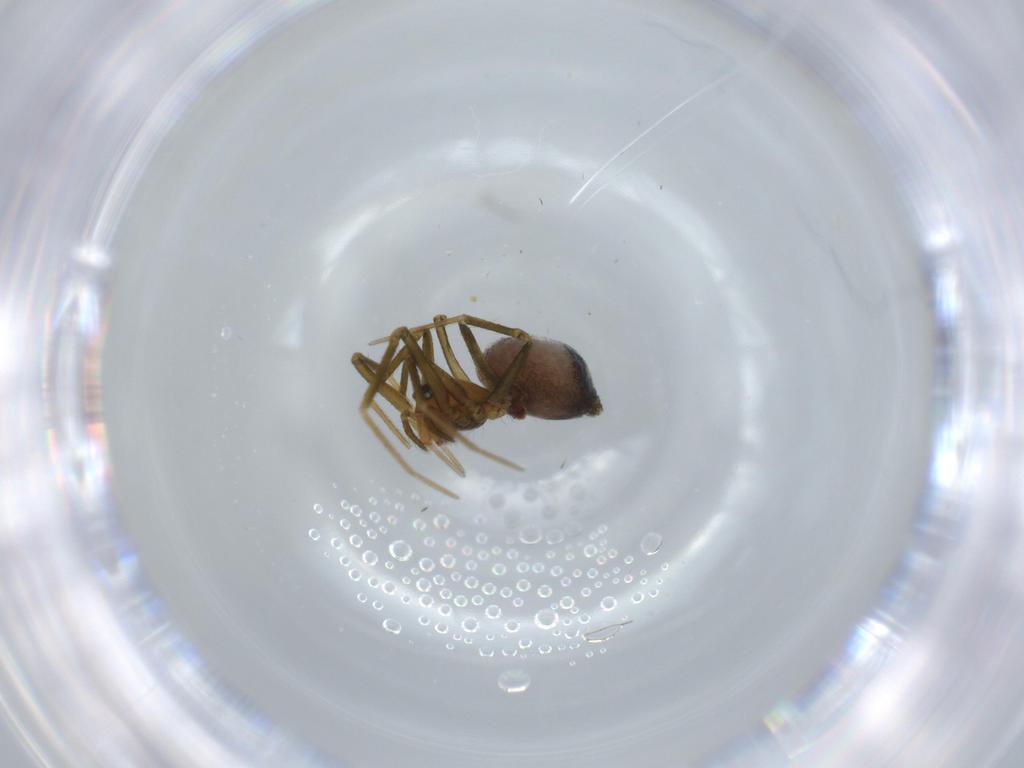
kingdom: Animalia
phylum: Arthropoda
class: Arachnida
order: Araneae
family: Linyphiidae
